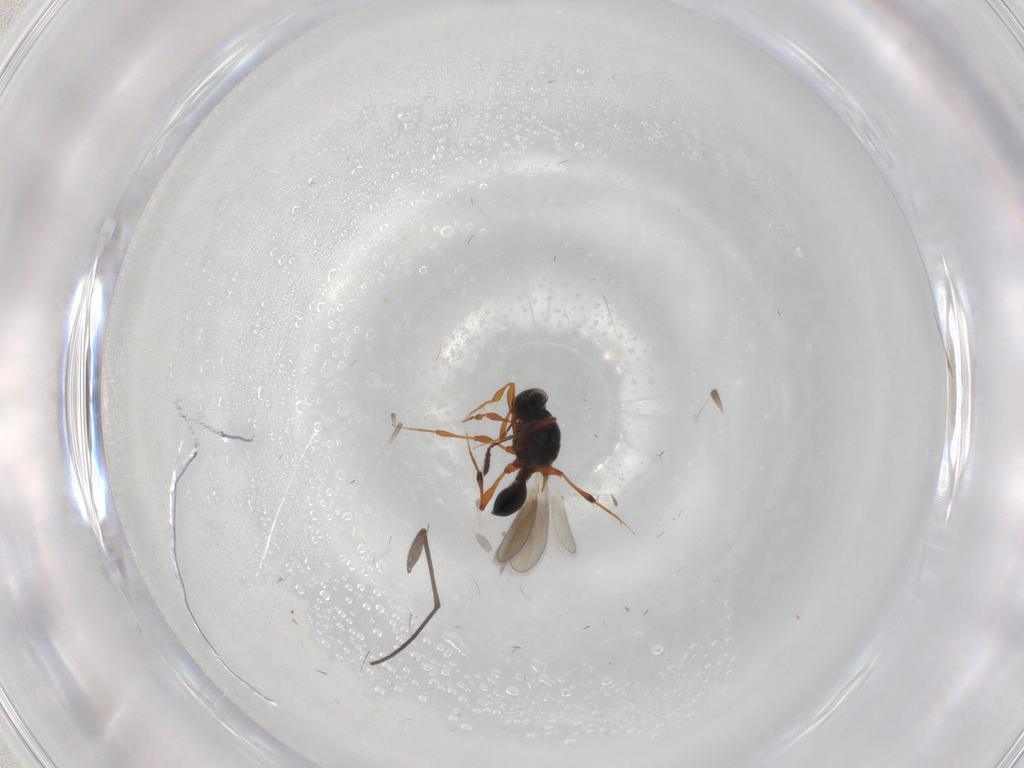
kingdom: Animalia
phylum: Arthropoda
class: Insecta
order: Hymenoptera
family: Platygastridae
